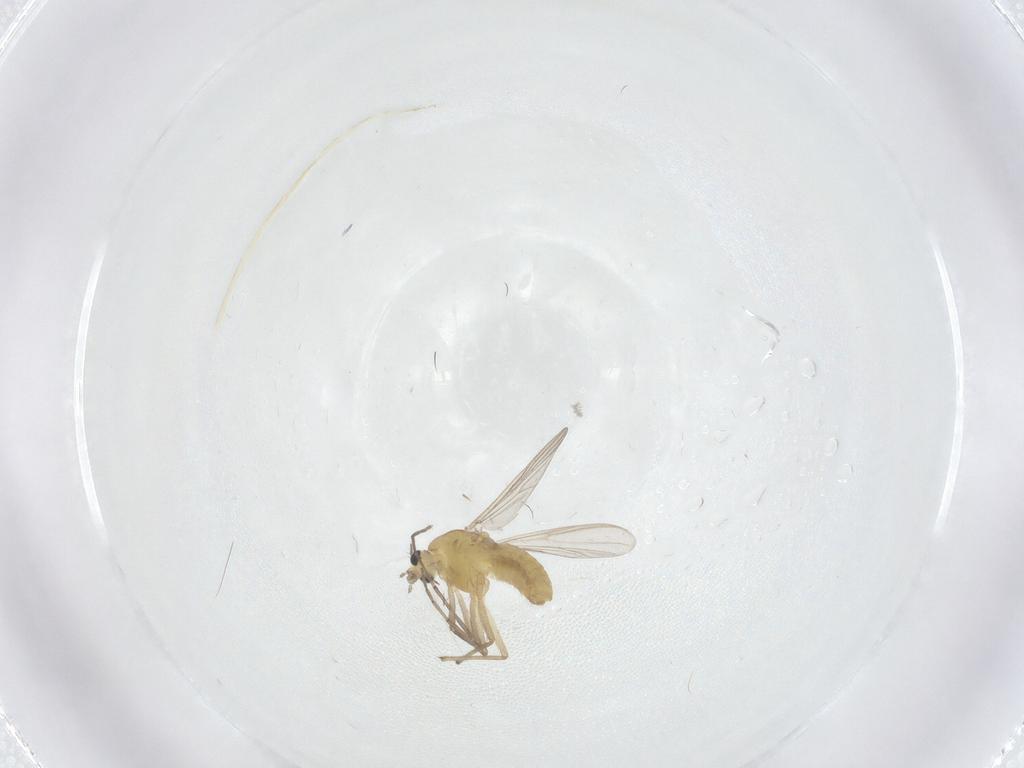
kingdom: Animalia
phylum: Arthropoda
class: Insecta
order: Diptera
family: Chironomidae
